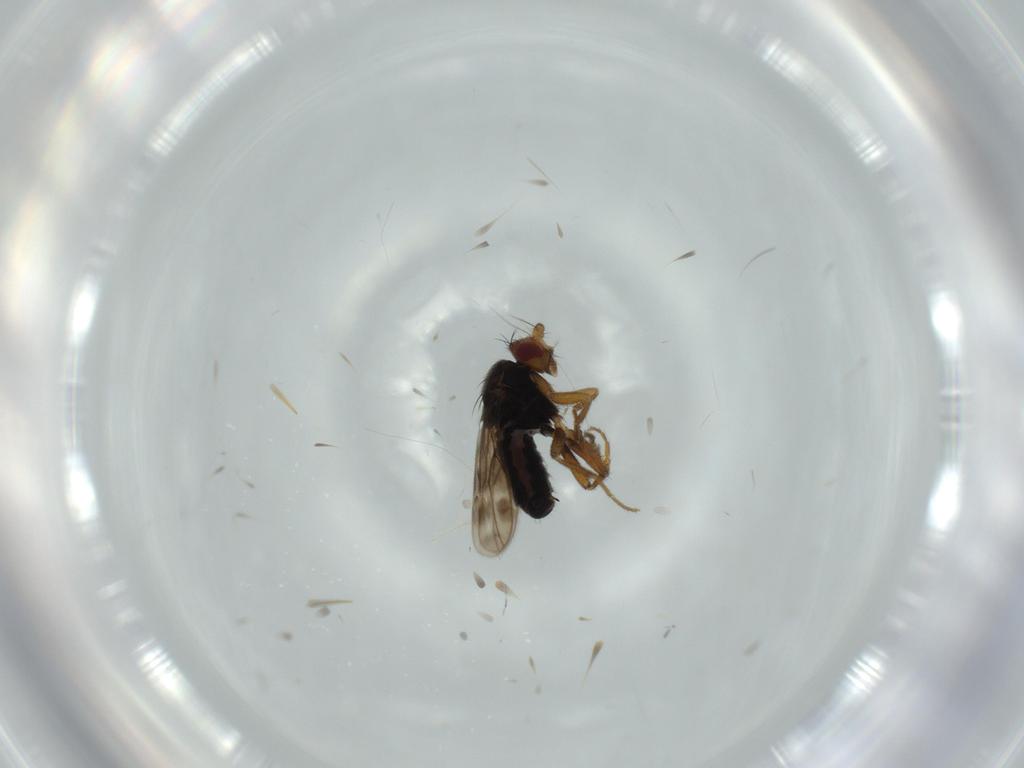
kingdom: Animalia
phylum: Arthropoda
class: Insecta
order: Diptera
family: Sphaeroceridae
